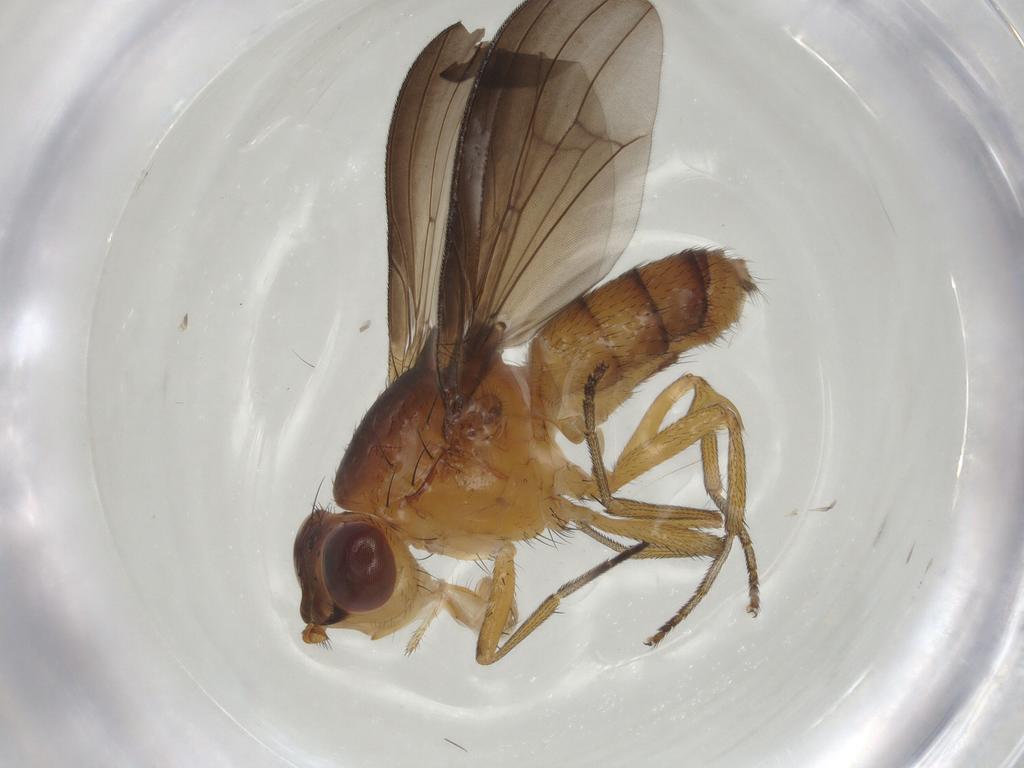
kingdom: Animalia
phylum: Arthropoda
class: Insecta
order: Diptera
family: Lauxaniidae
